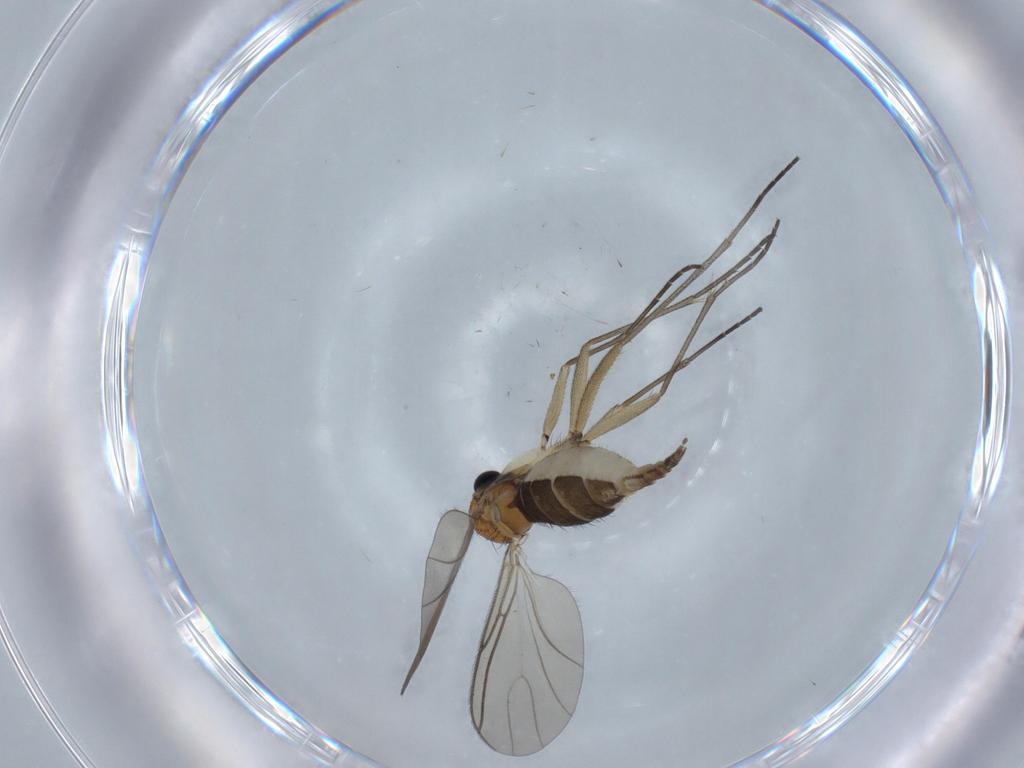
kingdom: Animalia
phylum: Arthropoda
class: Insecta
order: Diptera
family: Sciaridae
